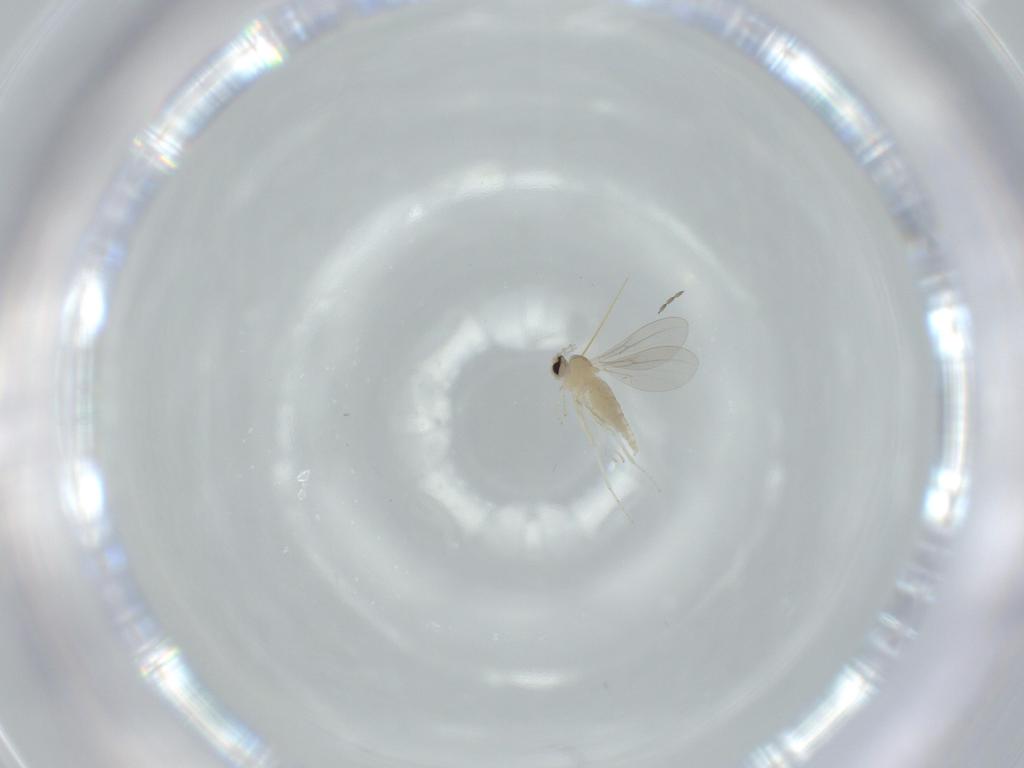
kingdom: Animalia
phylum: Arthropoda
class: Insecta
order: Diptera
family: Cecidomyiidae
